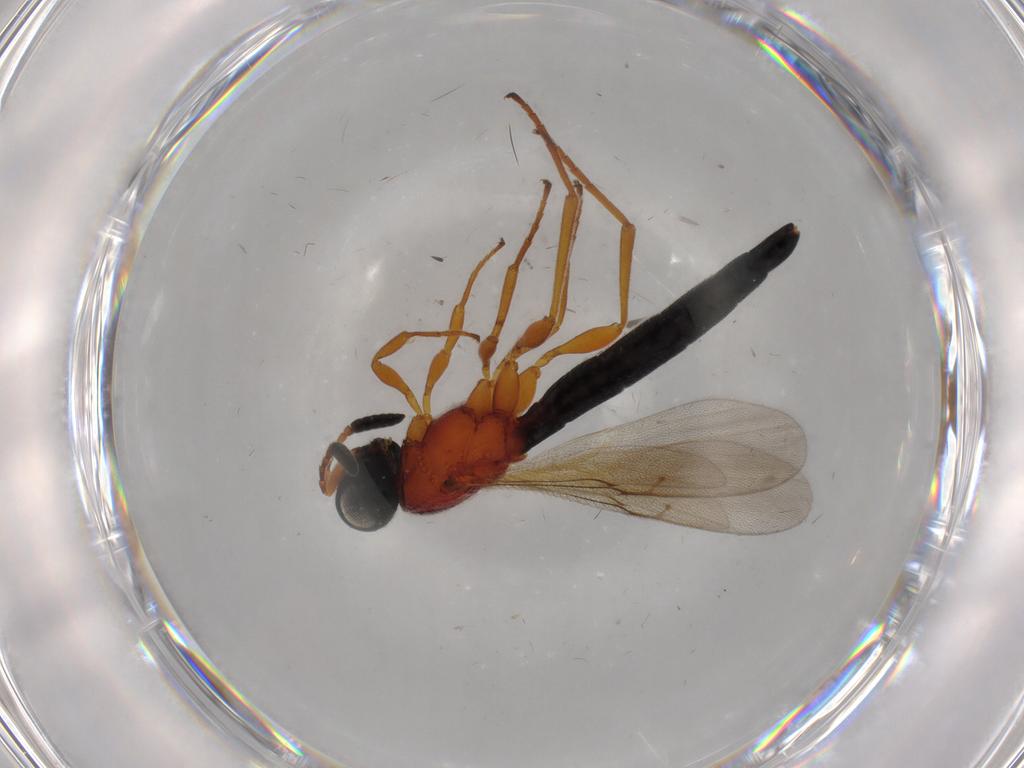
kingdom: Animalia
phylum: Arthropoda
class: Insecta
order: Hymenoptera
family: Scelionidae
